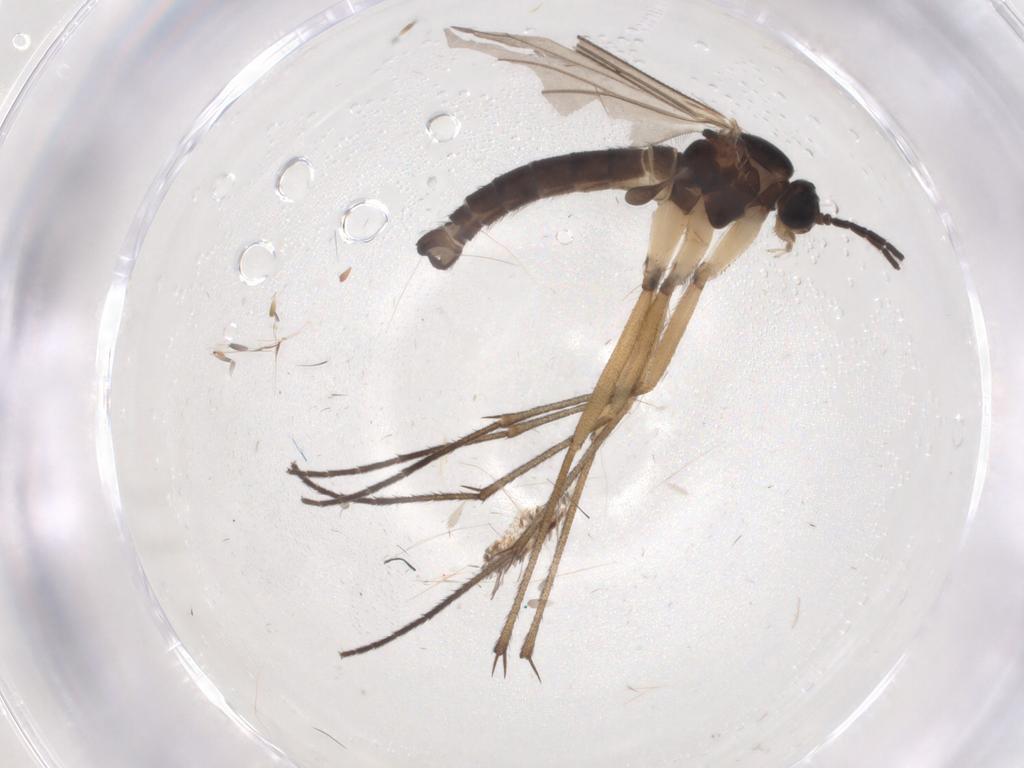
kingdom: Animalia
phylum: Arthropoda
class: Insecta
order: Diptera
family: Sciaridae
